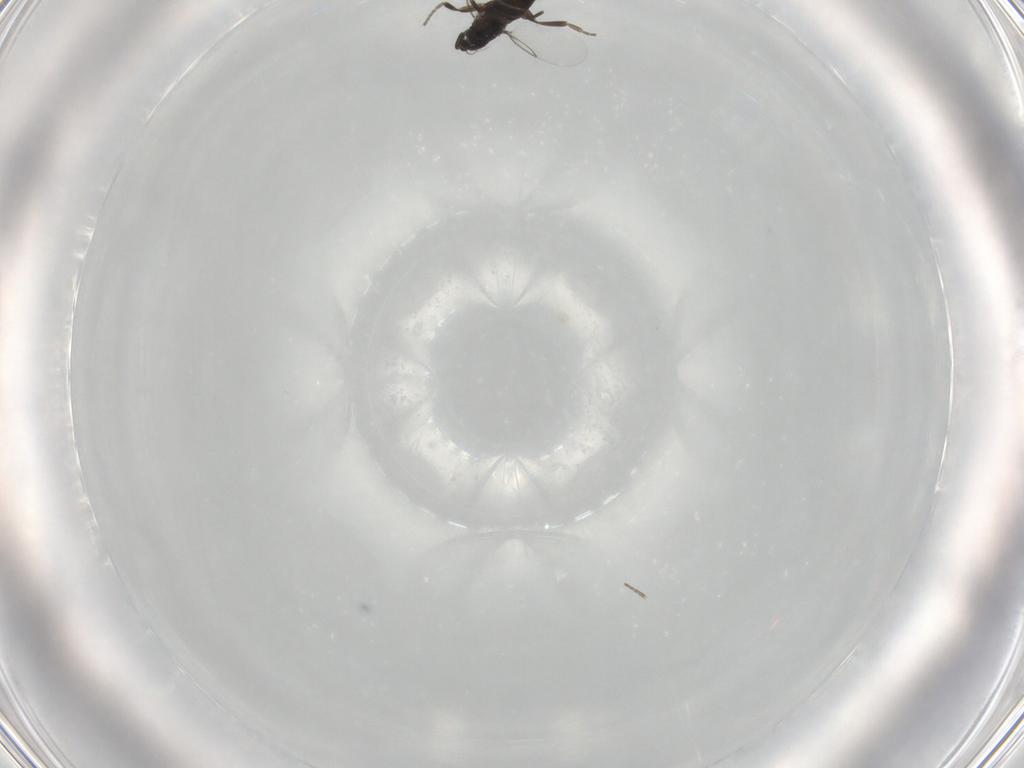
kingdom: Animalia
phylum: Arthropoda
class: Insecta
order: Diptera
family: Phoridae
